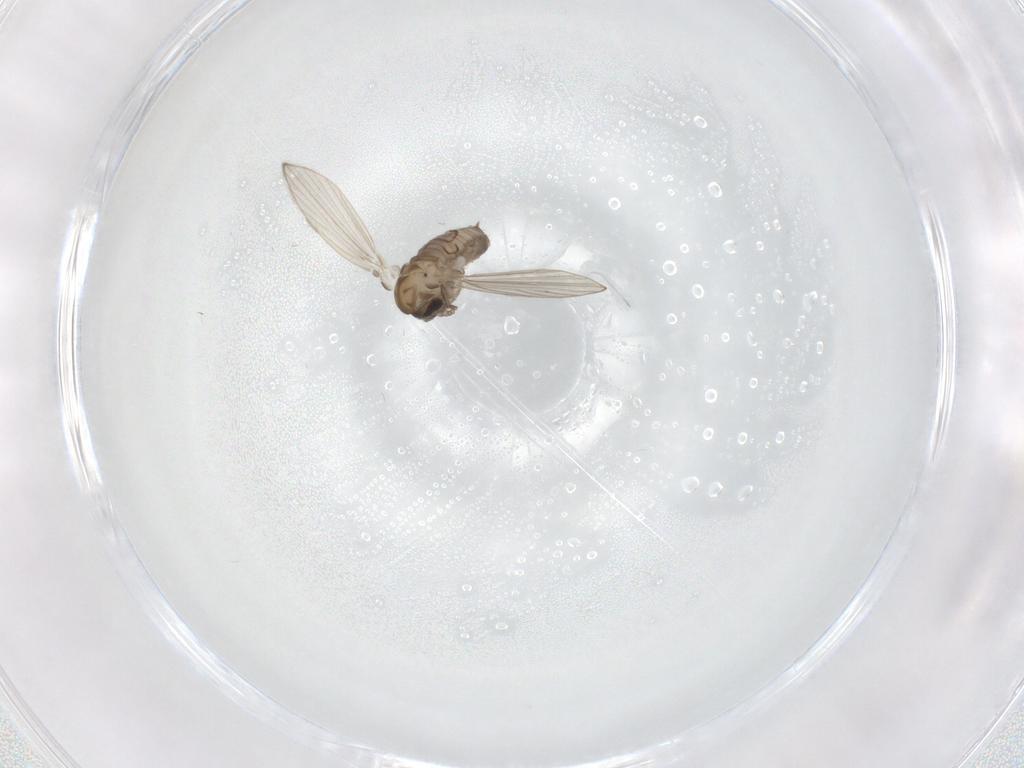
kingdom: Animalia
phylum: Arthropoda
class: Insecta
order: Diptera
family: Psychodidae
